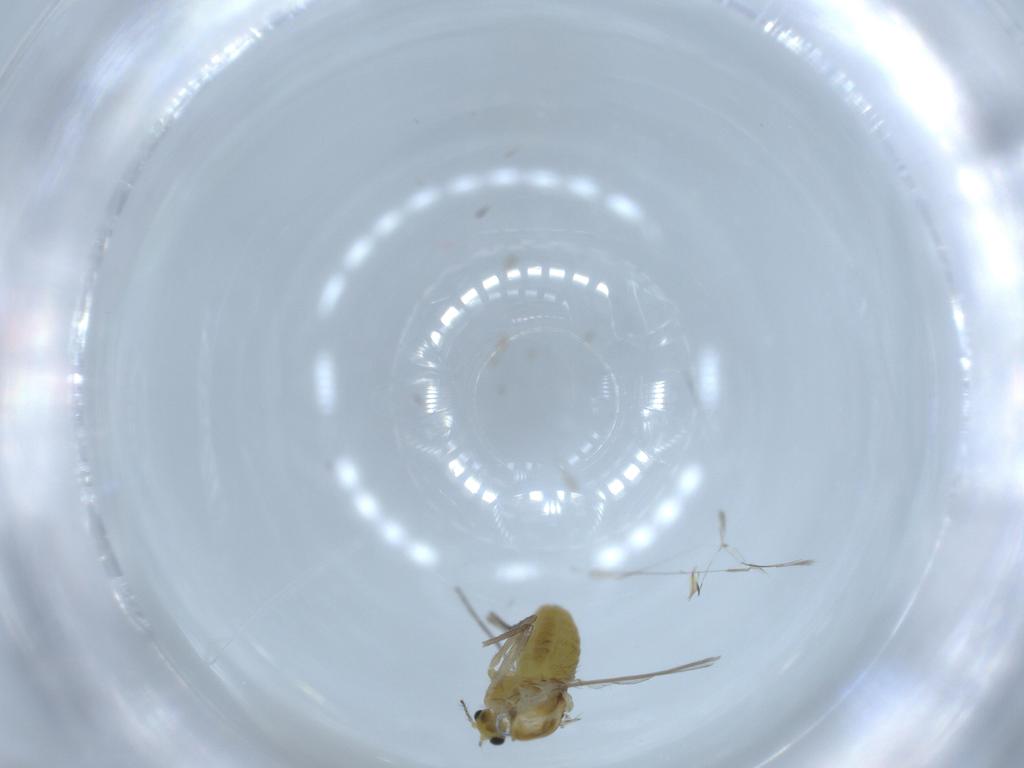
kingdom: Animalia
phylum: Arthropoda
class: Insecta
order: Diptera
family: Chironomidae
